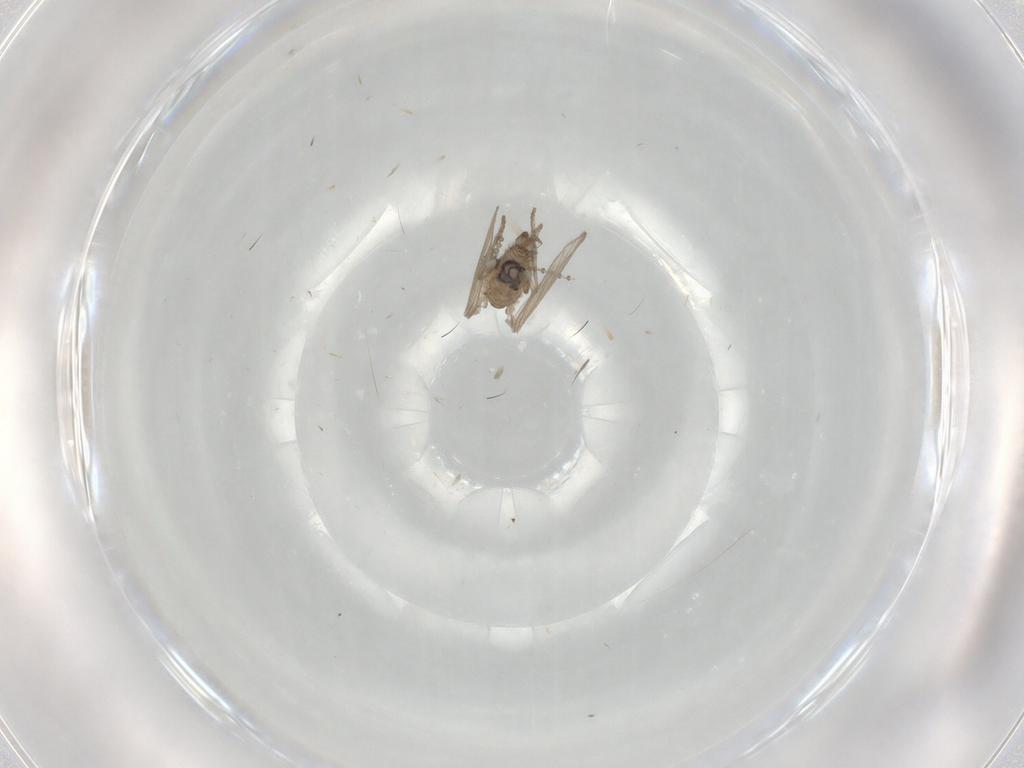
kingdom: Animalia
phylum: Arthropoda
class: Insecta
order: Diptera
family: Psychodidae
